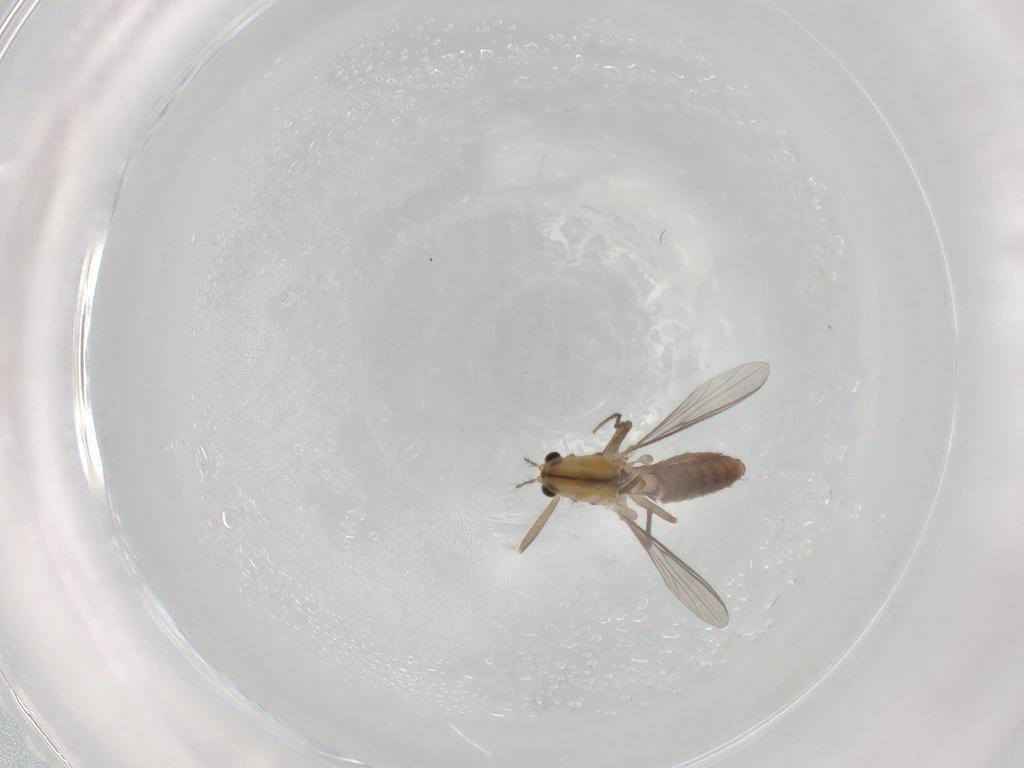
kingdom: Animalia
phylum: Arthropoda
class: Insecta
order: Diptera
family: Chironomidae
